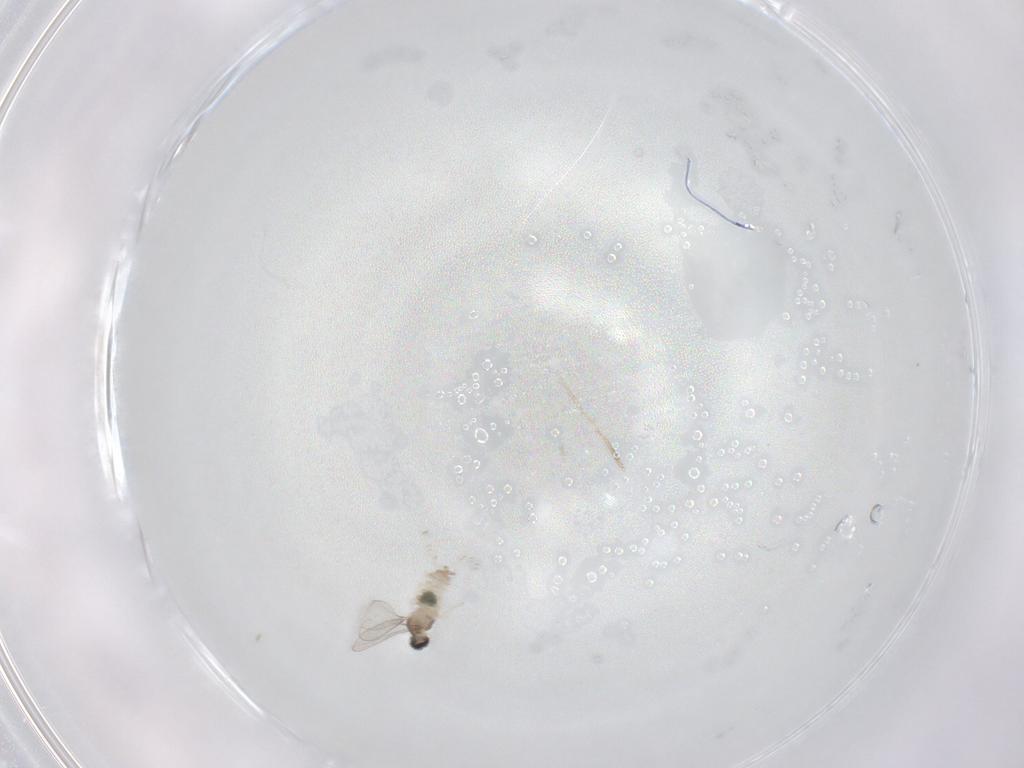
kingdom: Animalia
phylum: Arthropoda
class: Insecta
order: Diptera
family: Cecidomyiidae
